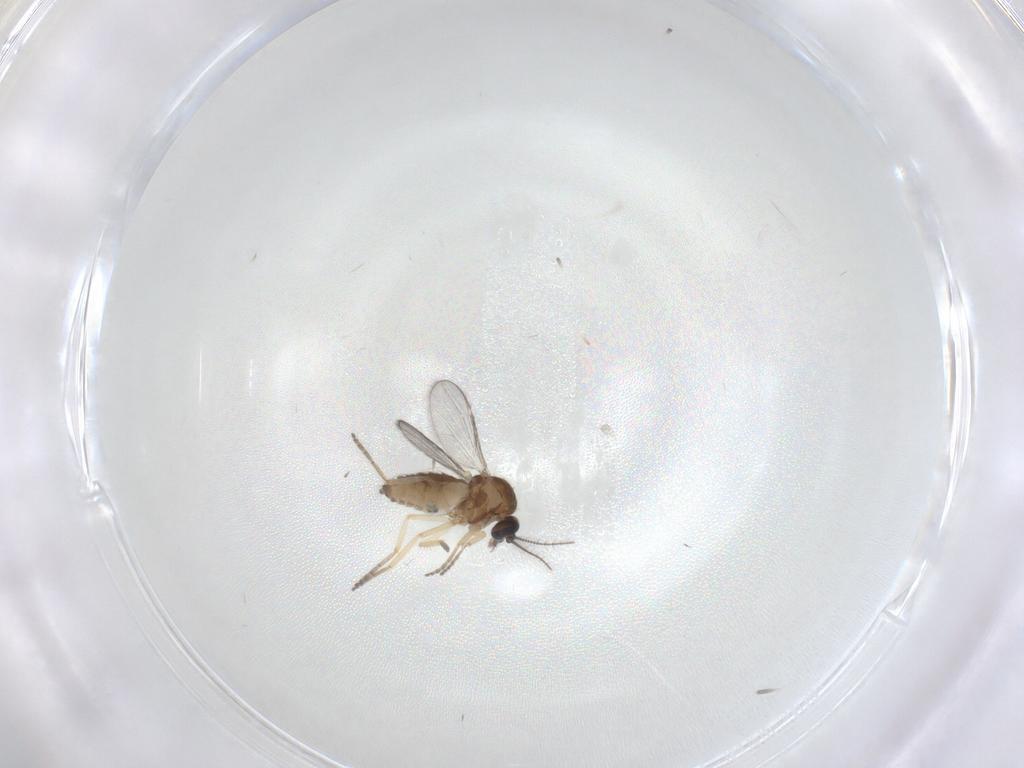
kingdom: Animalia
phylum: Arthropoda
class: Insecta
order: Diptera
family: Ceratopogonidae
